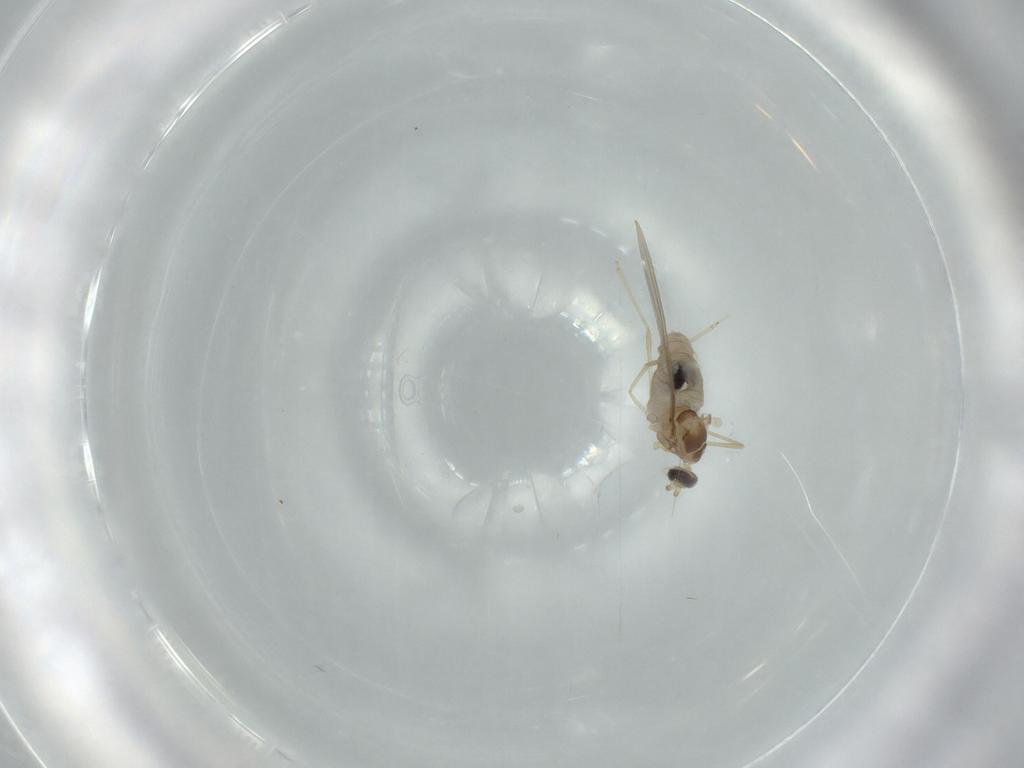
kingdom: Animalia
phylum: Arthropoda
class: Insecta
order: Diptera
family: Cecidomyiidae
